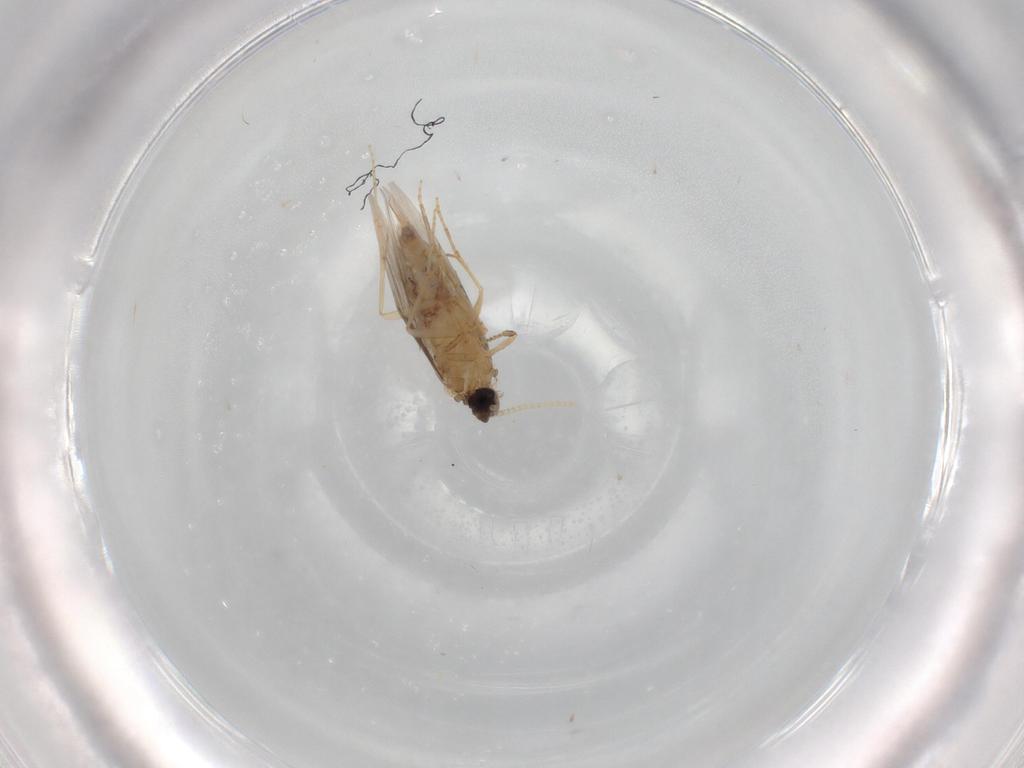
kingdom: Animalia
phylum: Arthropoda
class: Insecta
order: Trichoptera
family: Hydroptilidae
